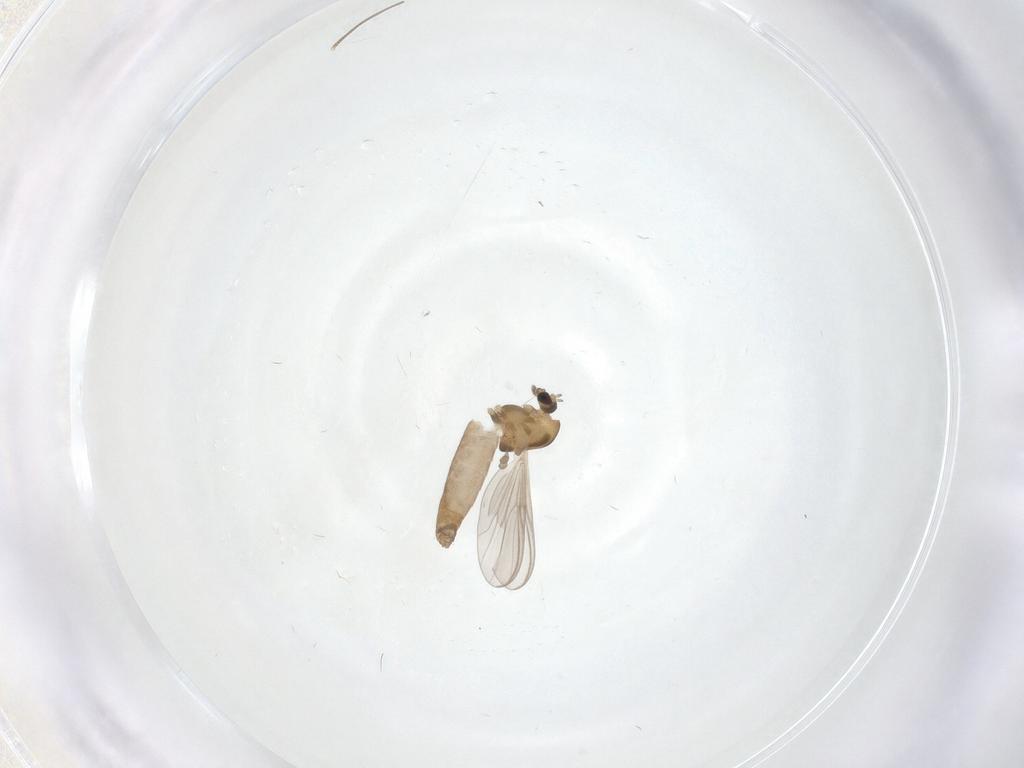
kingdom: Animalia
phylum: Arthropoda
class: Insecta
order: Diptera
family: Chironomidae
